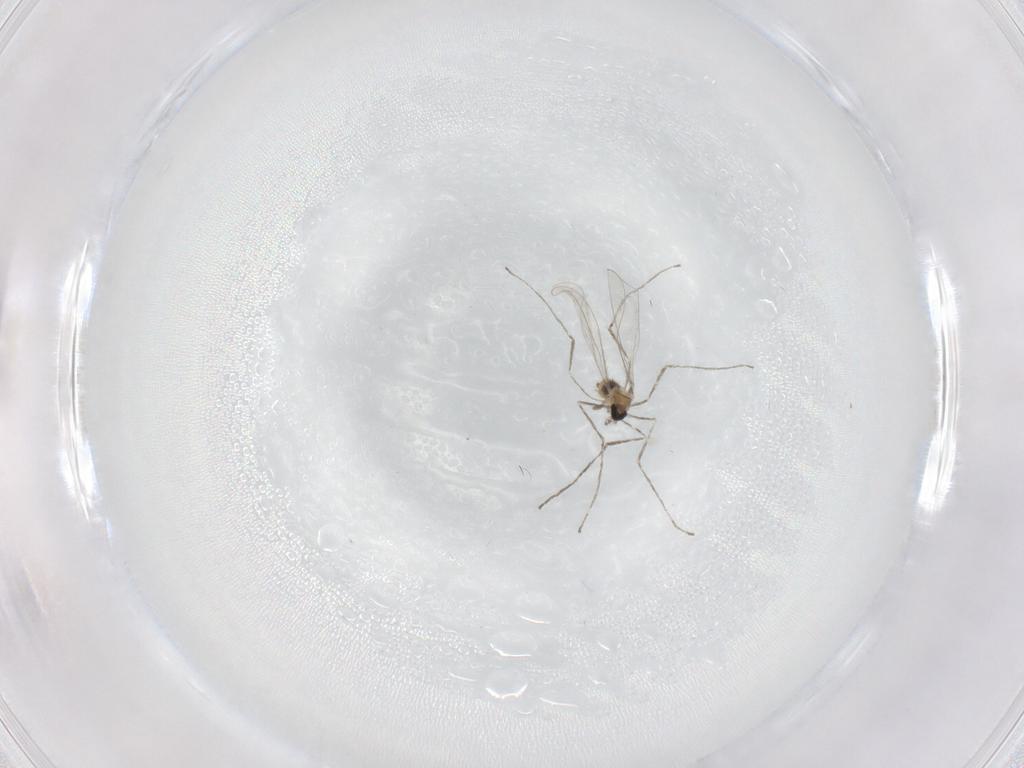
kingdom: Animalia
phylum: Arthropoda
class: Insecta
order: Diptera
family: Cecidomyiidae
